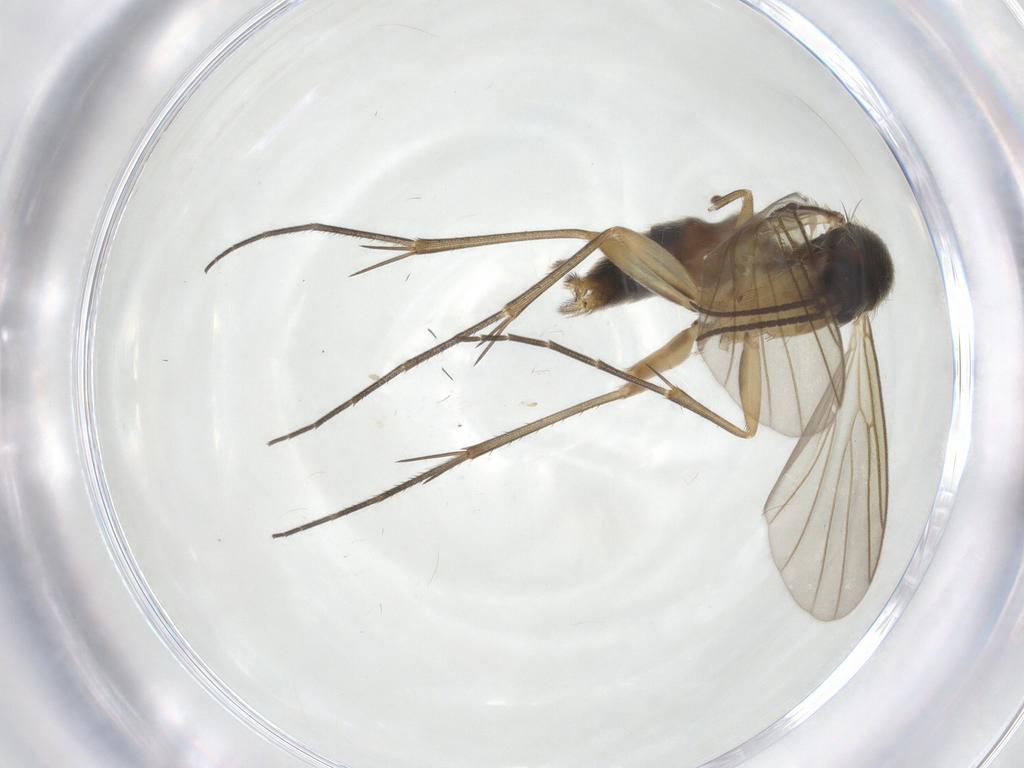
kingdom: Animalia
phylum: Arthropoda
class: Insecta
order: Diptera
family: Mycetophilidae
